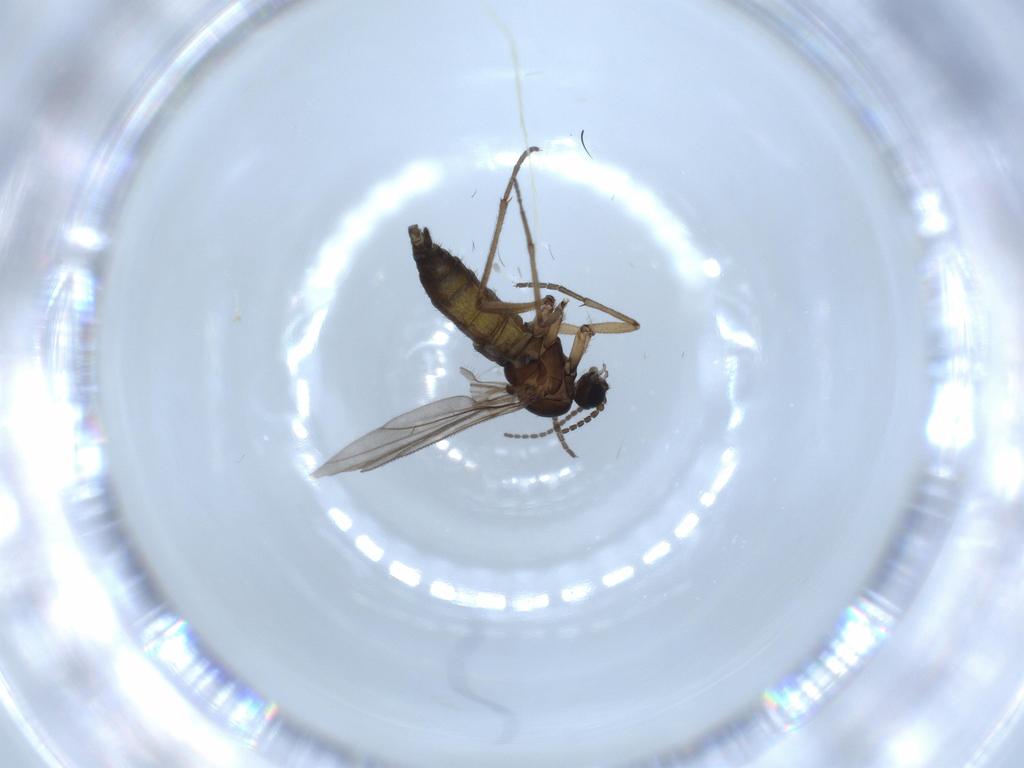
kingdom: Animalia
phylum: Arthropoda
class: Insecta
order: Diptera
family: Sciaridae
